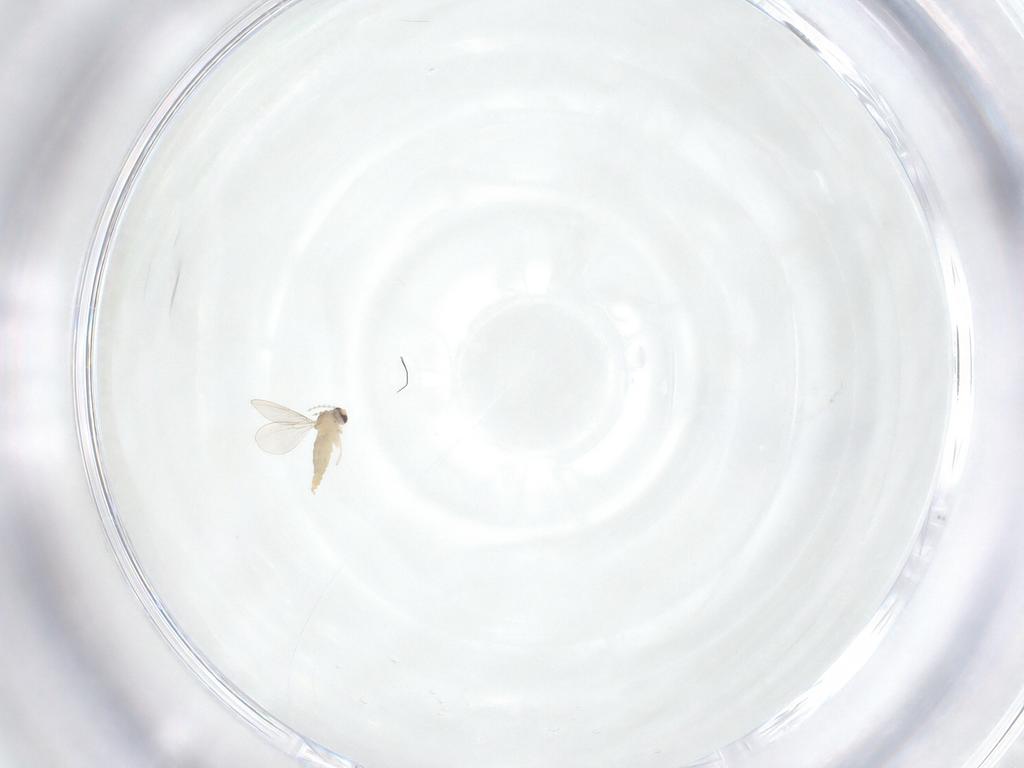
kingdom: Animalia
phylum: Arthropoda
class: Insecta
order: Diptera
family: Cecidomyiidae
